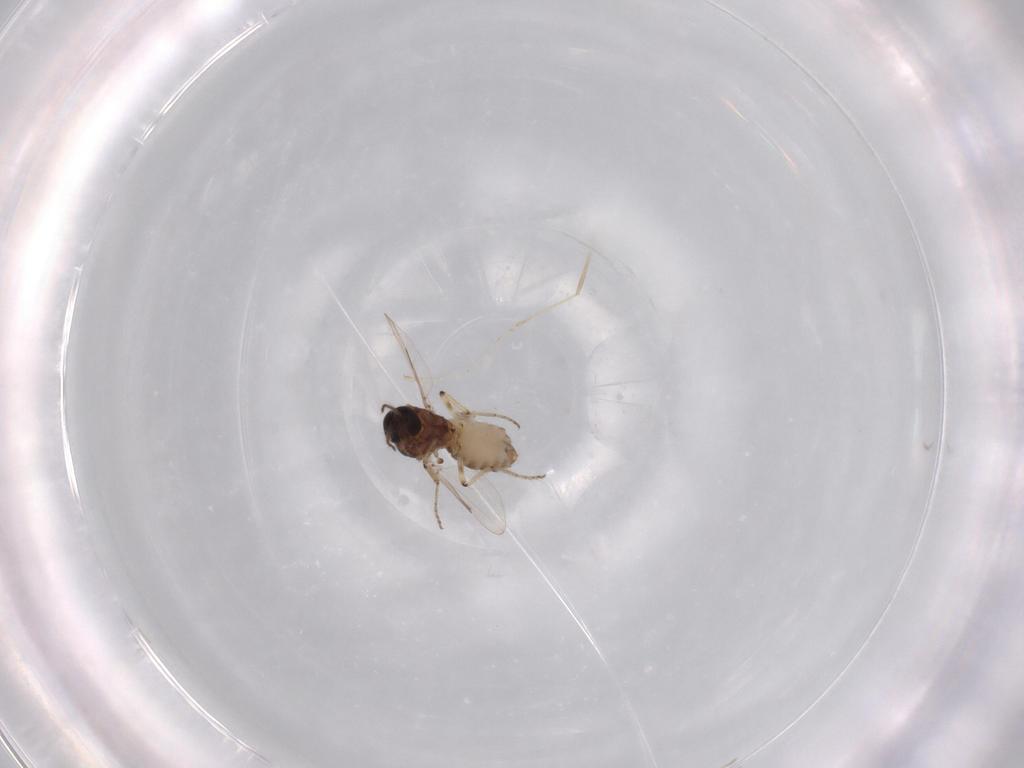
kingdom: Animalia
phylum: Arthropoda
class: Insecta
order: Diptera
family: Ceratopogonidae
